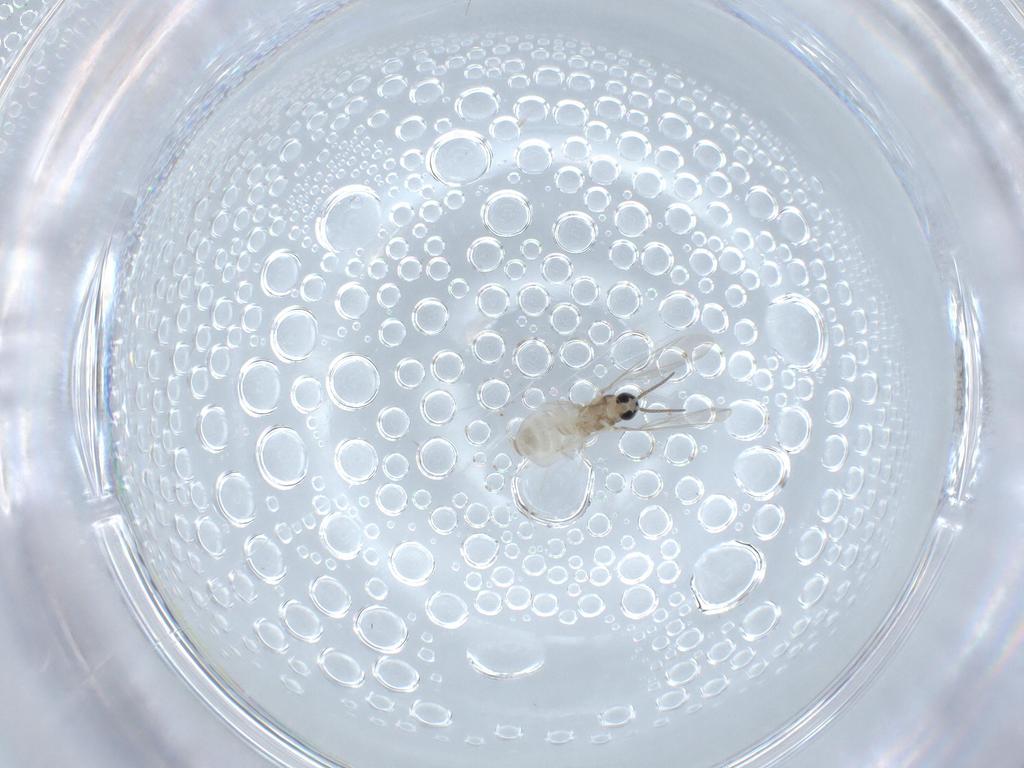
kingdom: Animalia
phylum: Arthropoda
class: Insecta
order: Diptera
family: Cecidomyiidae
